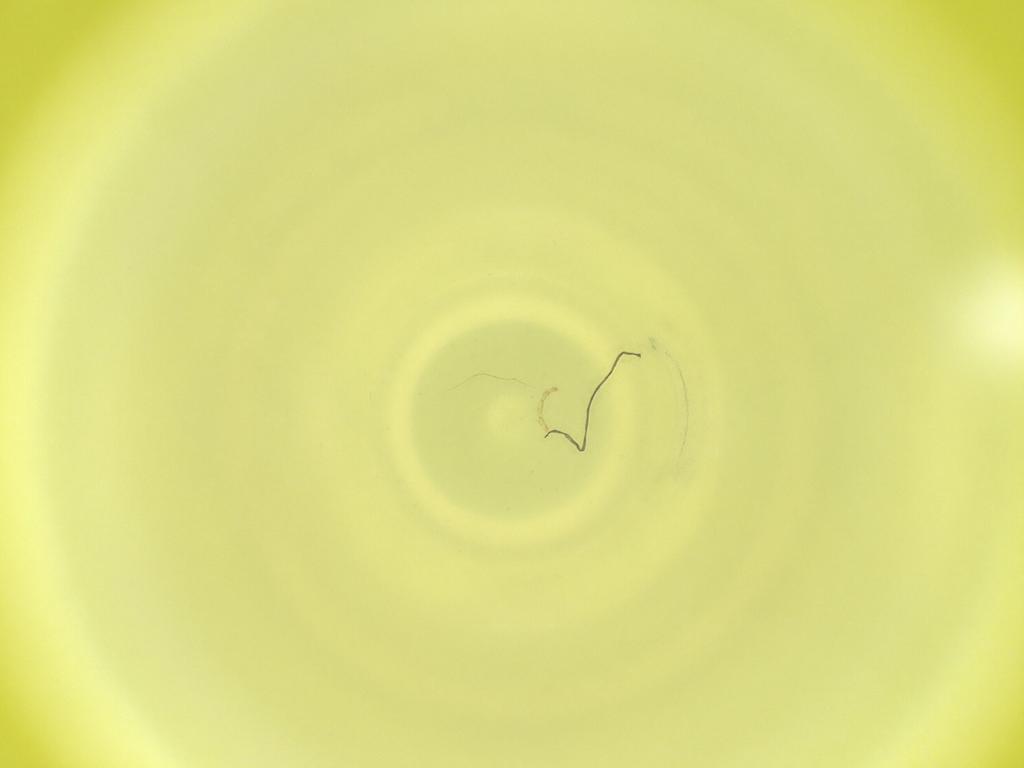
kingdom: Animalia
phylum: Arthropoda
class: Insecta
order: Diptera
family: Cecidomyiidae
